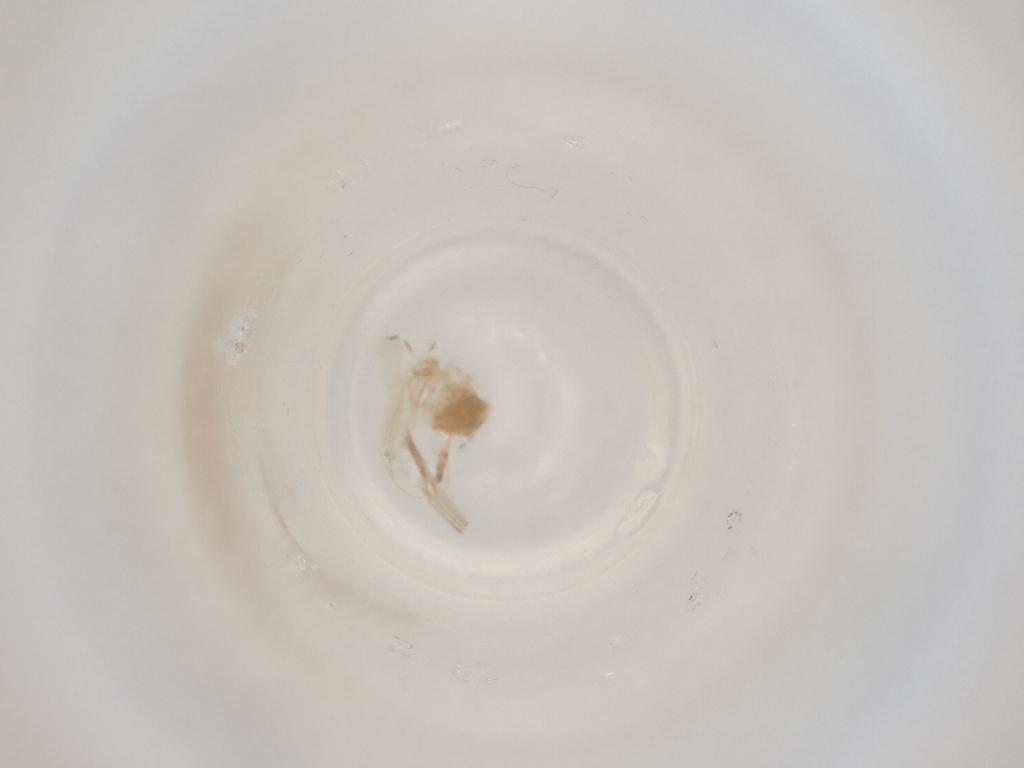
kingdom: Animalia
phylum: Arthropoda
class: Insecta
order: Diptera
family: Cecidomyiidae
